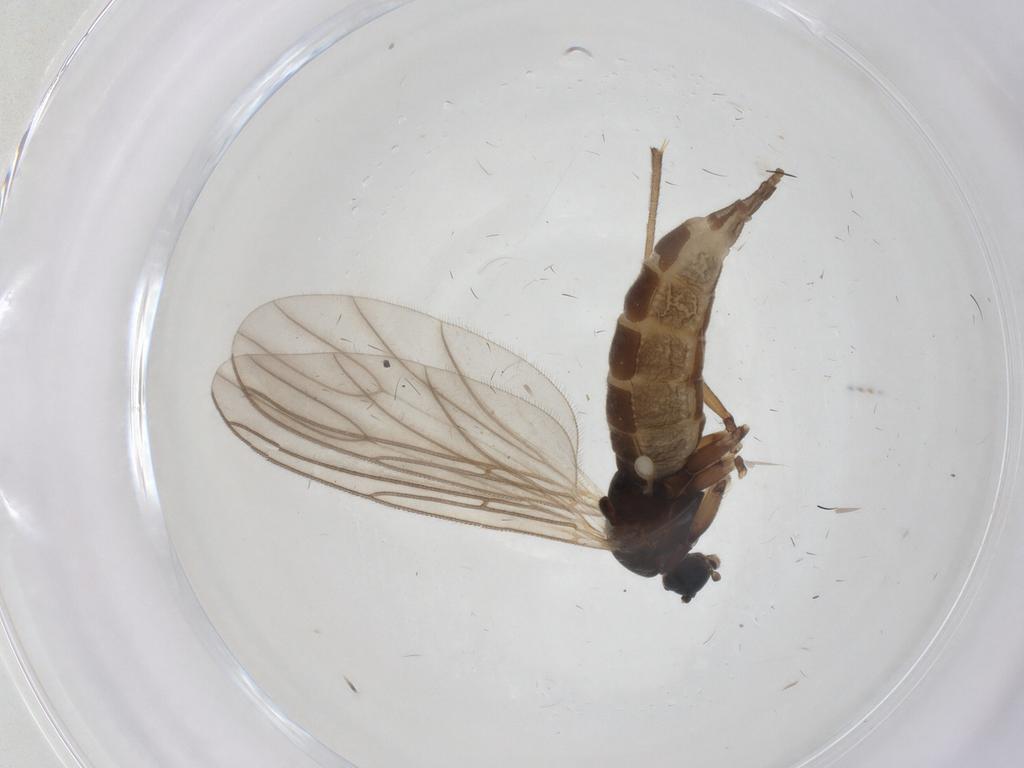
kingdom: Animalia
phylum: Arthropoda
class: Insecta
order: Diptera
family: Sciaridae
